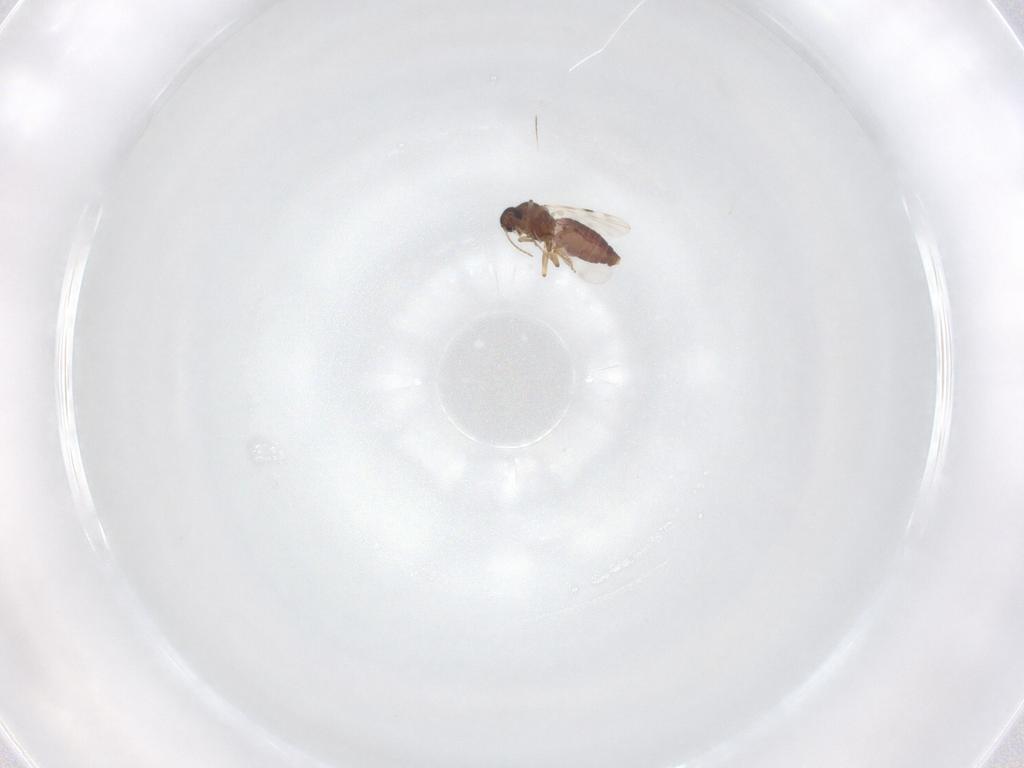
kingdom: Animalia
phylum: Arthropoda
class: Insecta
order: Diptera
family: Ceratopogonidae
